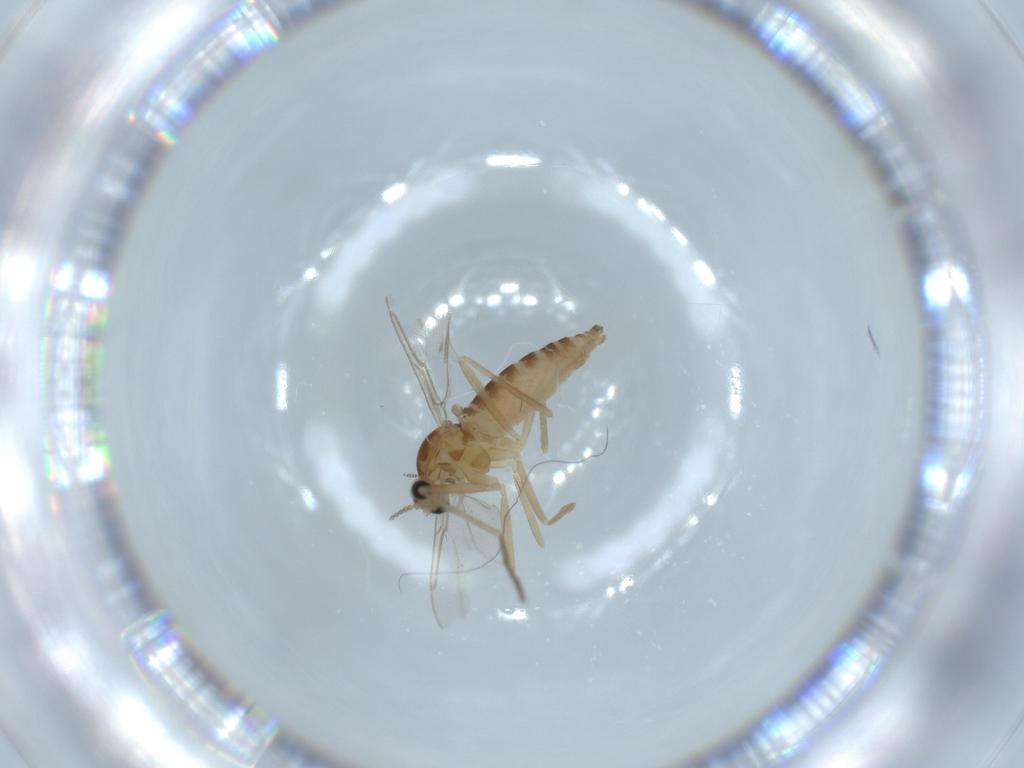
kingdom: Animalia
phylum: Arthropoda
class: Insecta
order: Diptera
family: Cecidomyiidae
